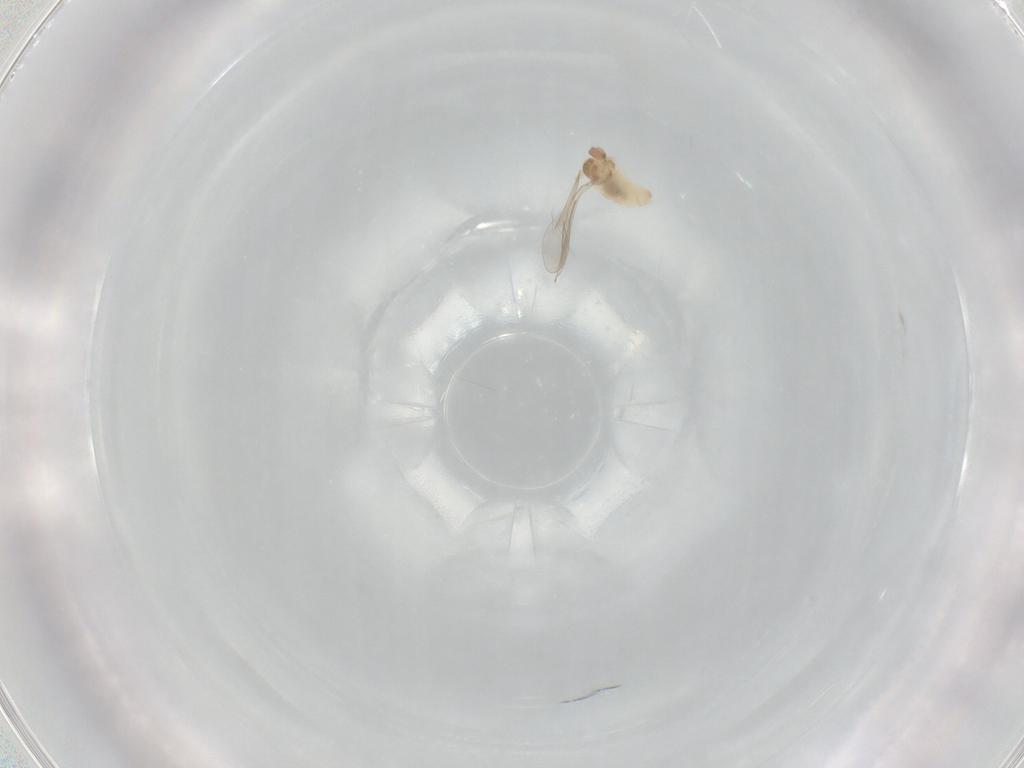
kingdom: Animalia
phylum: Arthropoda
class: Insecta
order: Diptera
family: Cecidomyiidae
